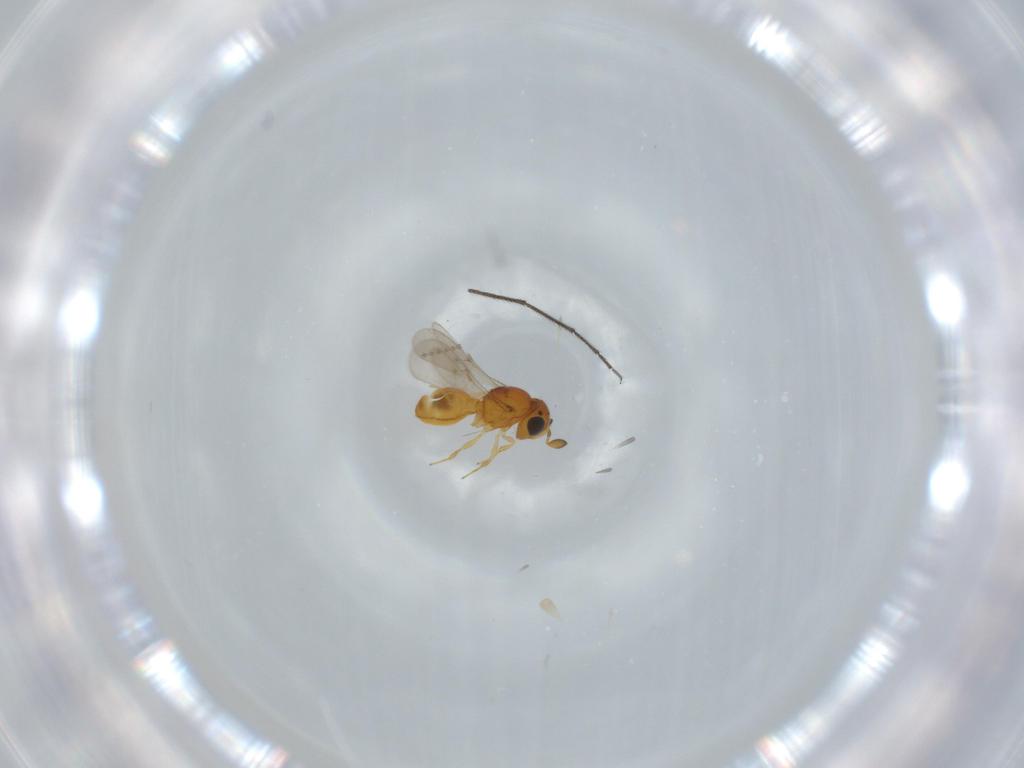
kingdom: Animalia
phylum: Arthropoda
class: Insecta
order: Hymenoptera
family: Scelionidae
